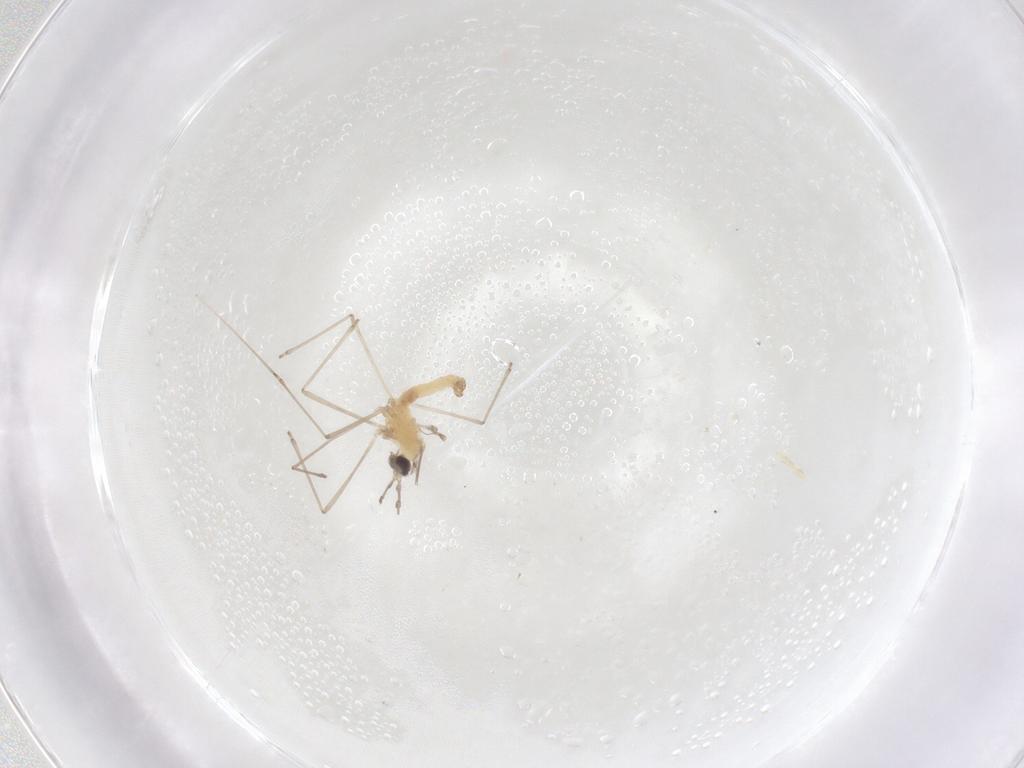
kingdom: Animalia
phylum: Arthropoda
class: Insecta
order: Diptera
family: Cecidomyiidae
